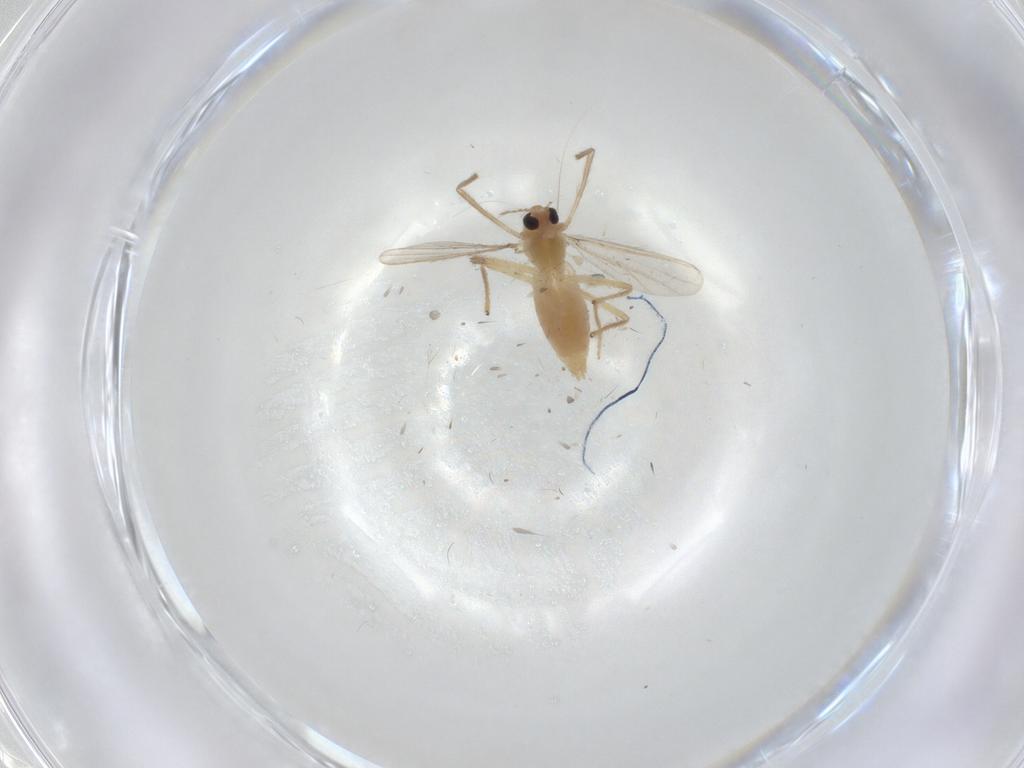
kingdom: Animalia
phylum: Arthropoda
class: Insecta
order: Diptera
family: Chironomidae
